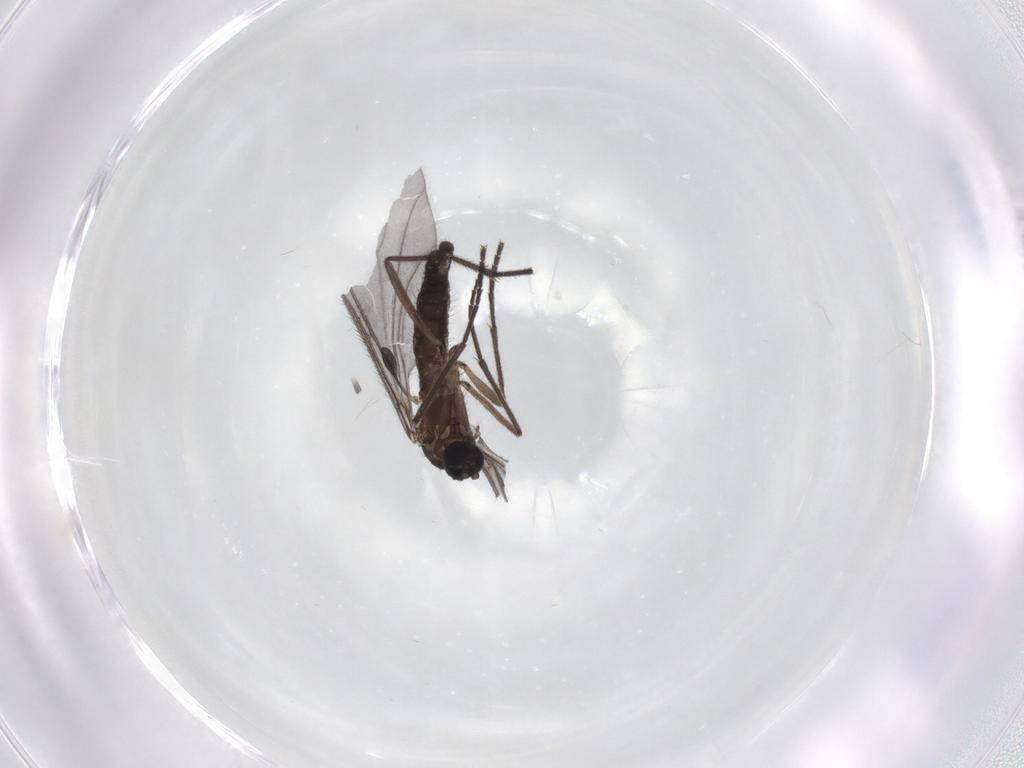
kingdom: Animalia
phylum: Arthropoda
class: Insecta
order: Diptera
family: Sciaridae
